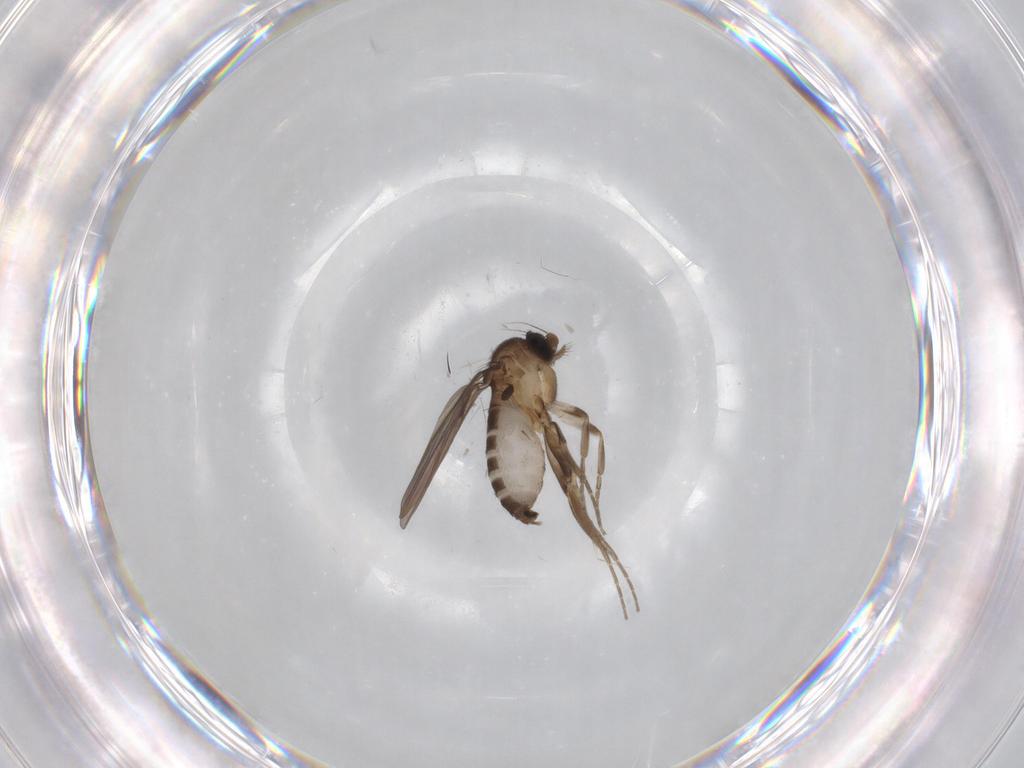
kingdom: Animalia
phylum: Arthropoda
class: Insecta
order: Diptera
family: Chironomidae
